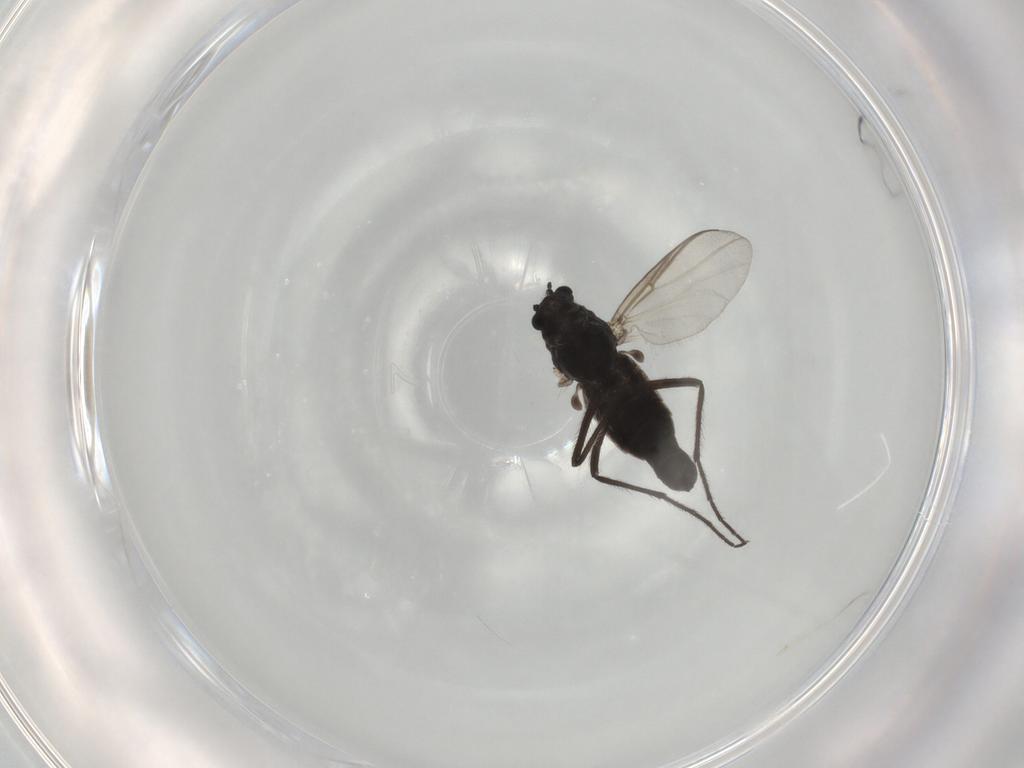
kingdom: Animalia
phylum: Arthropoda
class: Insecta
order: Diptera
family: Chironomidae
